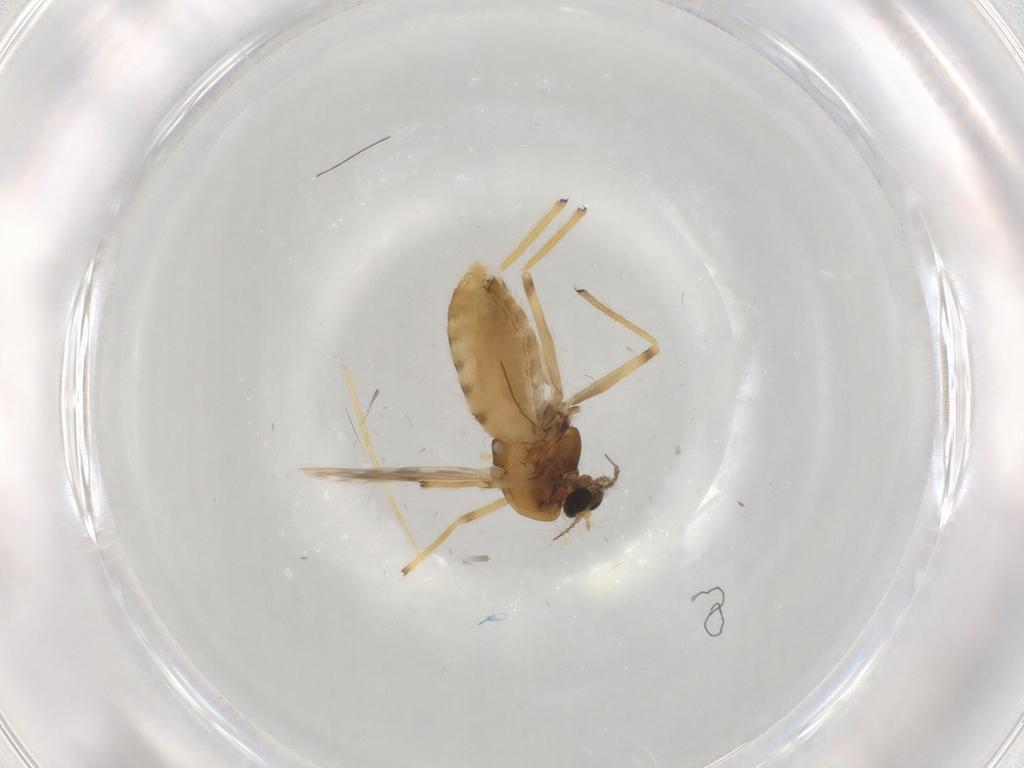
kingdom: Animalia
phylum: Arthropoda
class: Insecta
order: Diptera
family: Chironomidae
